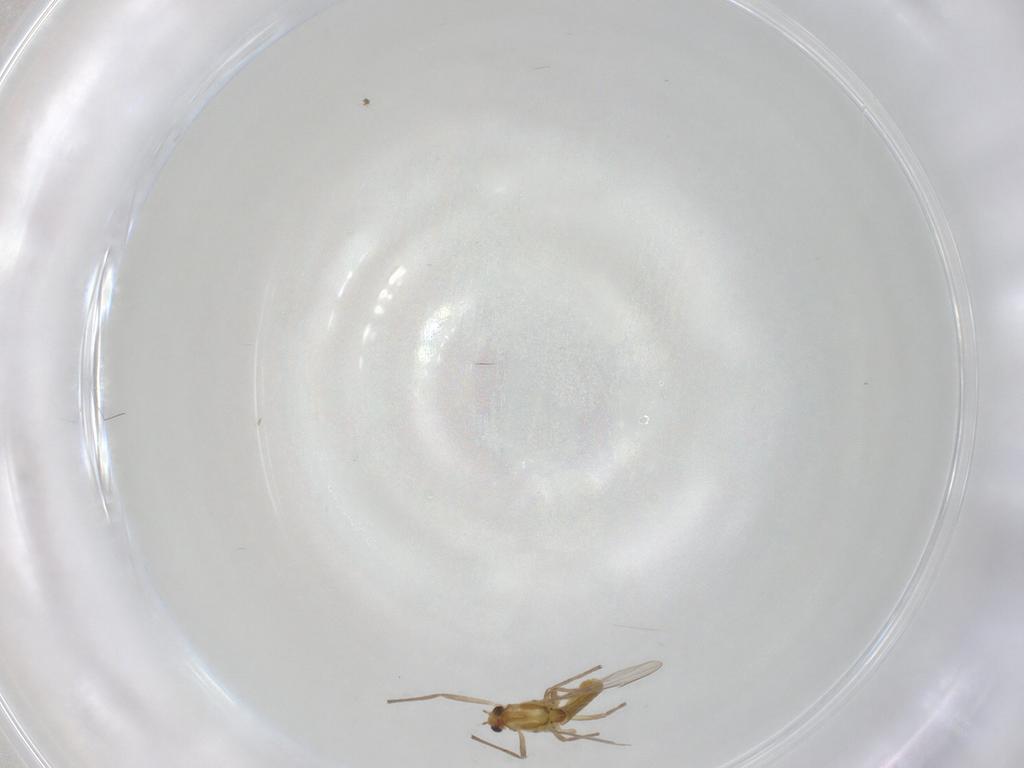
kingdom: Animalia
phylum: Arthropoda
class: Insecta
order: Diptera
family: Chironomidae
